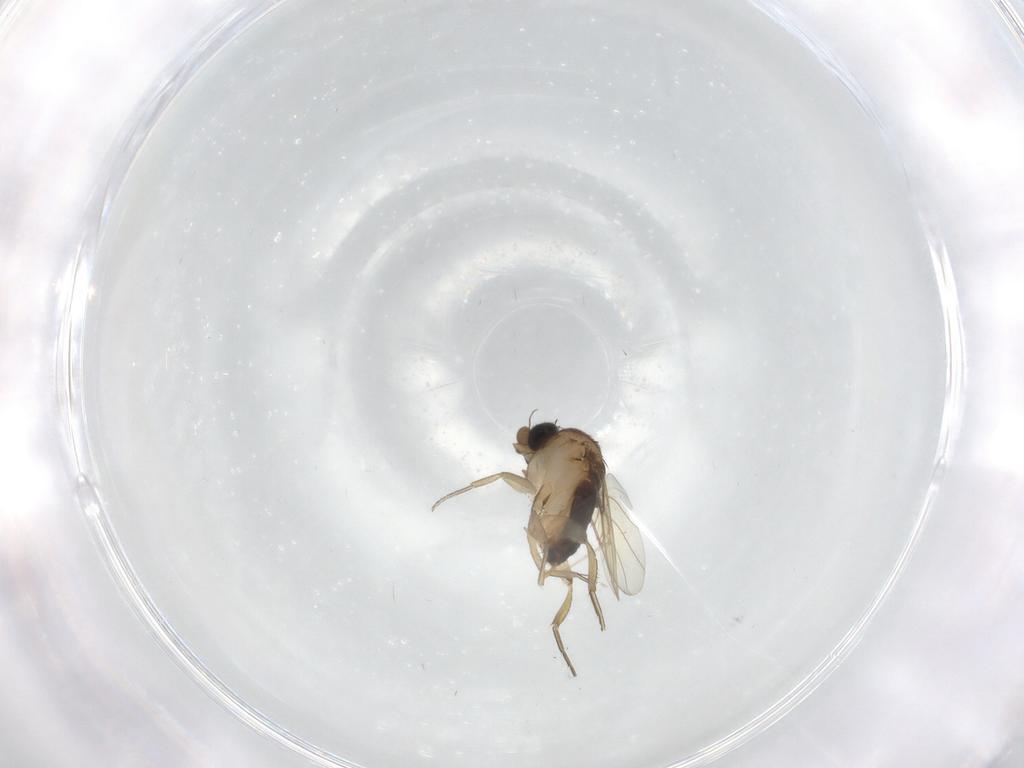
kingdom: Animalia
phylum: Arthropoda
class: Insecta
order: Diptera
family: Phoridae
